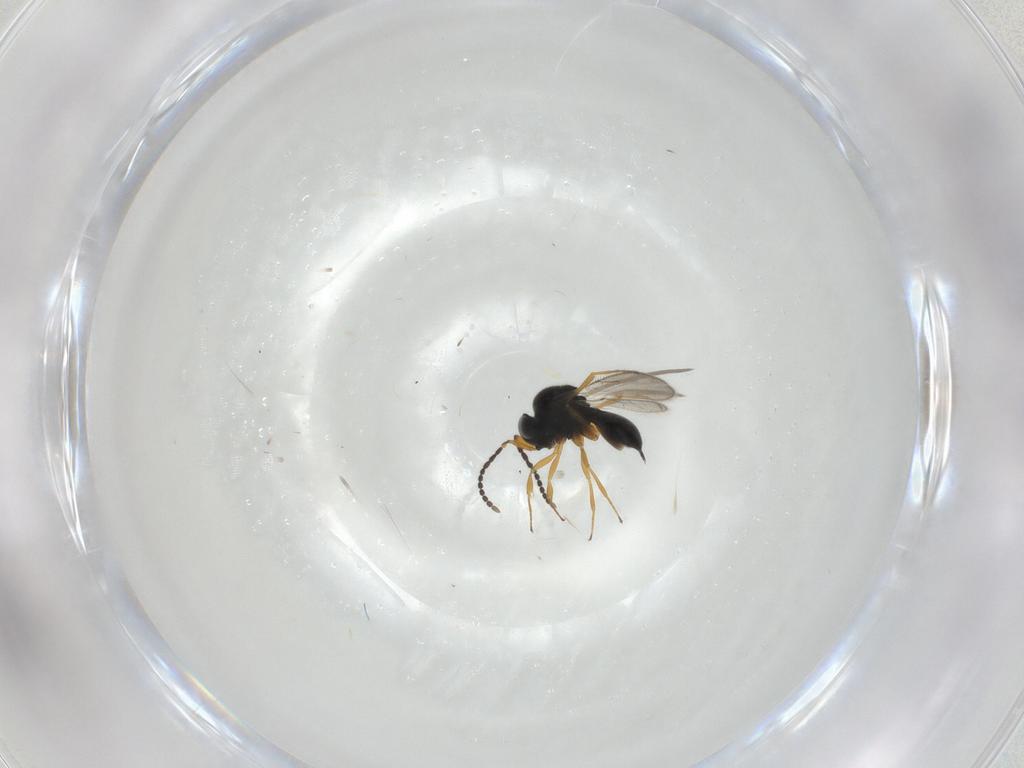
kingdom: Animalia
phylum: Arthropoda
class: Insecta
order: Hymenoptera
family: Scelionidae
